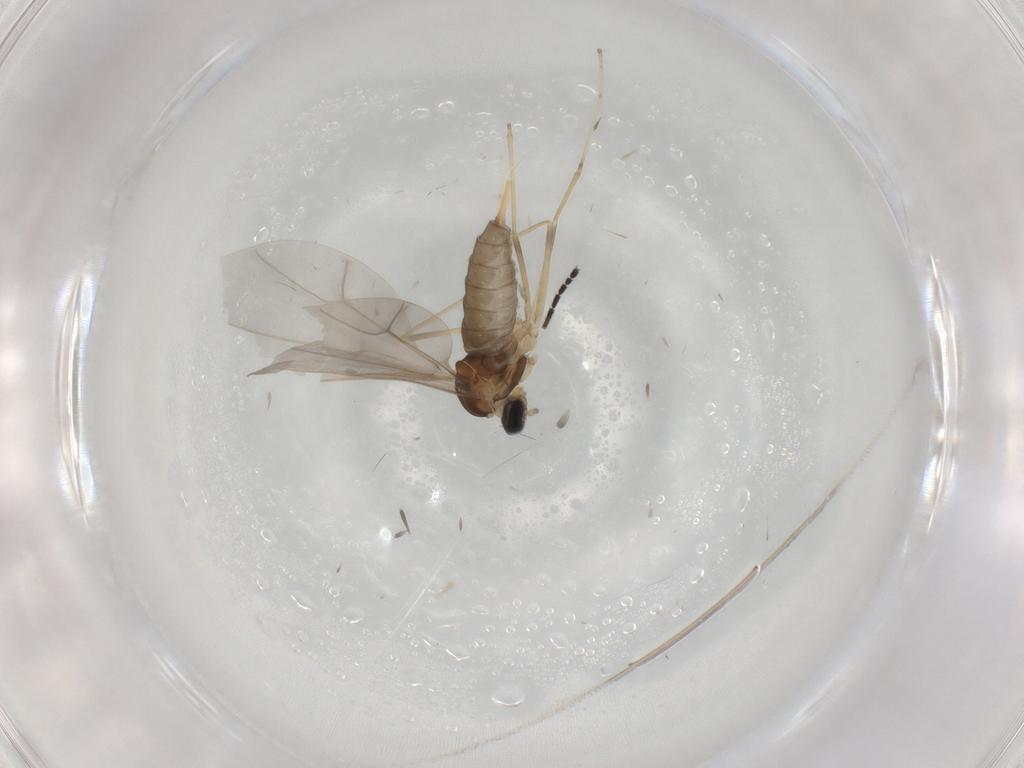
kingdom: Animalia
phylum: Arthropoda
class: Insecta
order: Diptera
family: Cecidomyiidae
